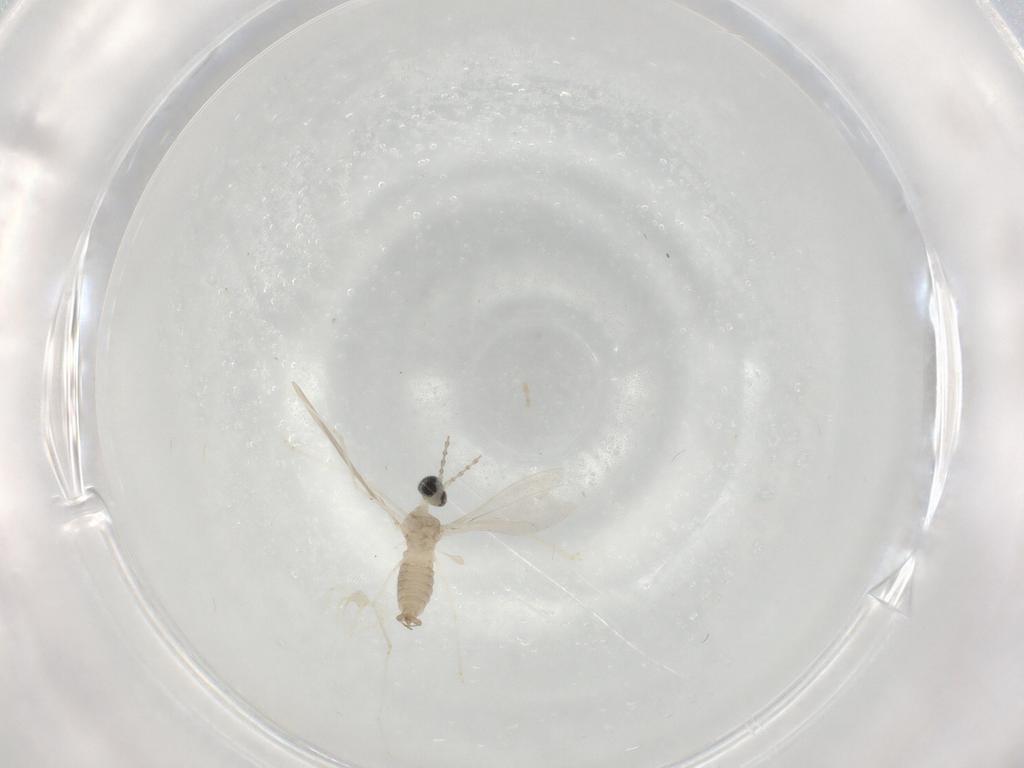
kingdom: Animalia
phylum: Arthropoda
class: Insecta
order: Diptera
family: Cecidomyiidae
